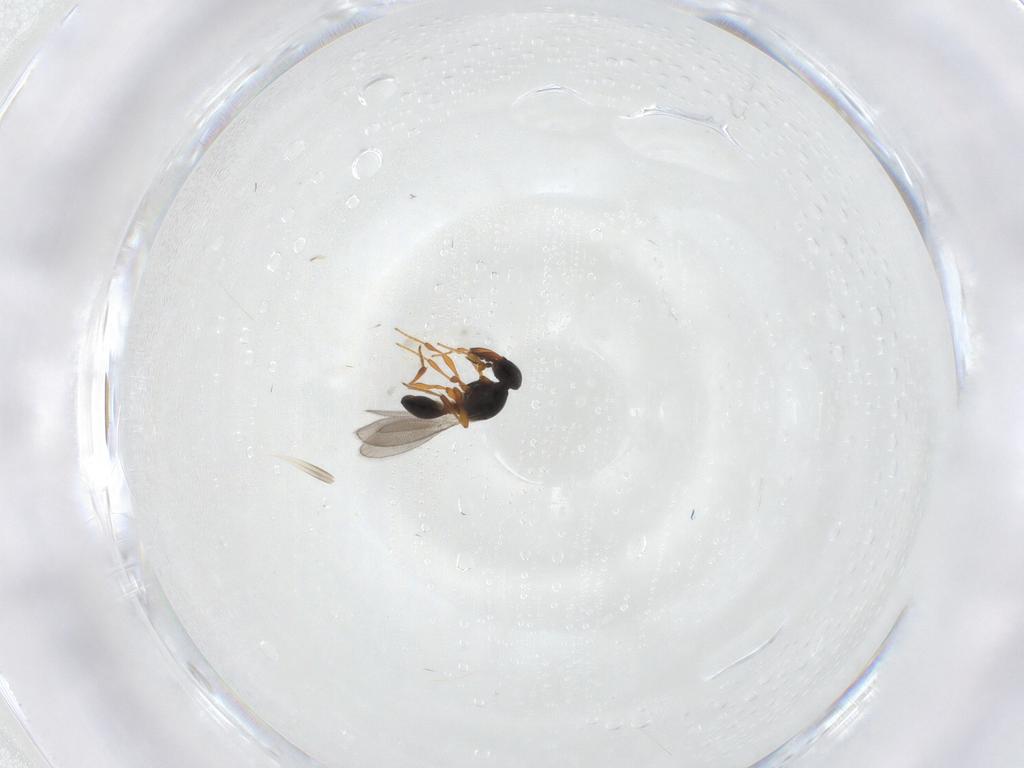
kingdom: Animalia
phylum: Arthropoda
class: Insecta
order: Hymenoptera
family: Platygastridae
